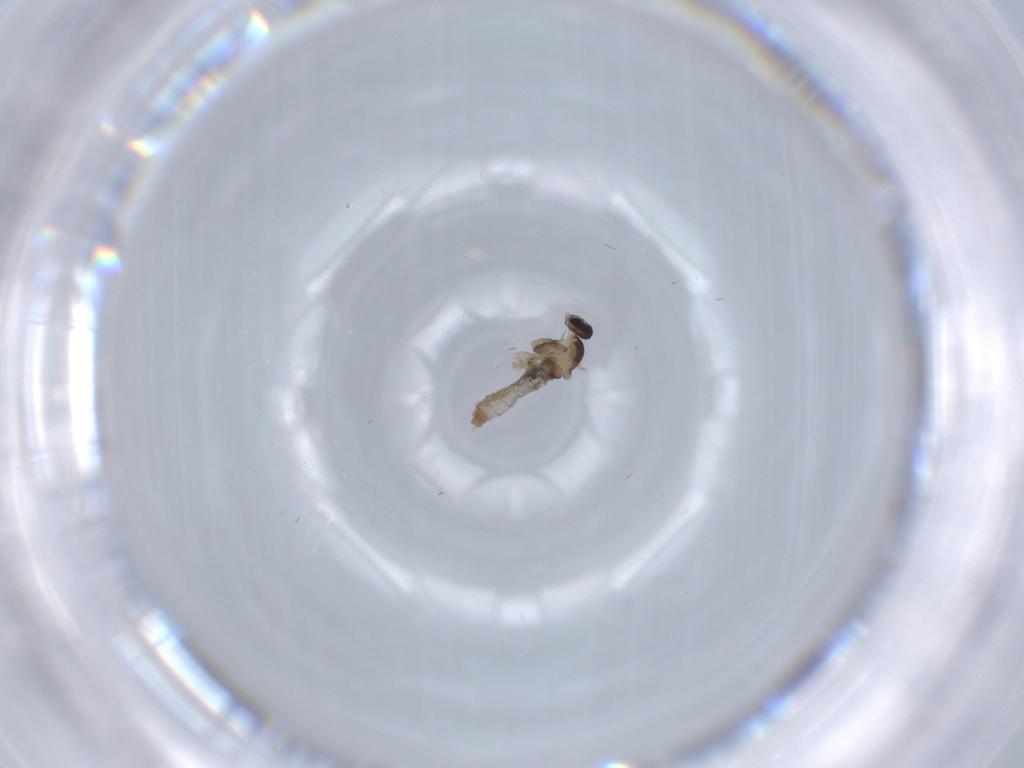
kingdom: Animalia
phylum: Arthropoda
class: Insecta
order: Diptera
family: Cecidomyiidae
